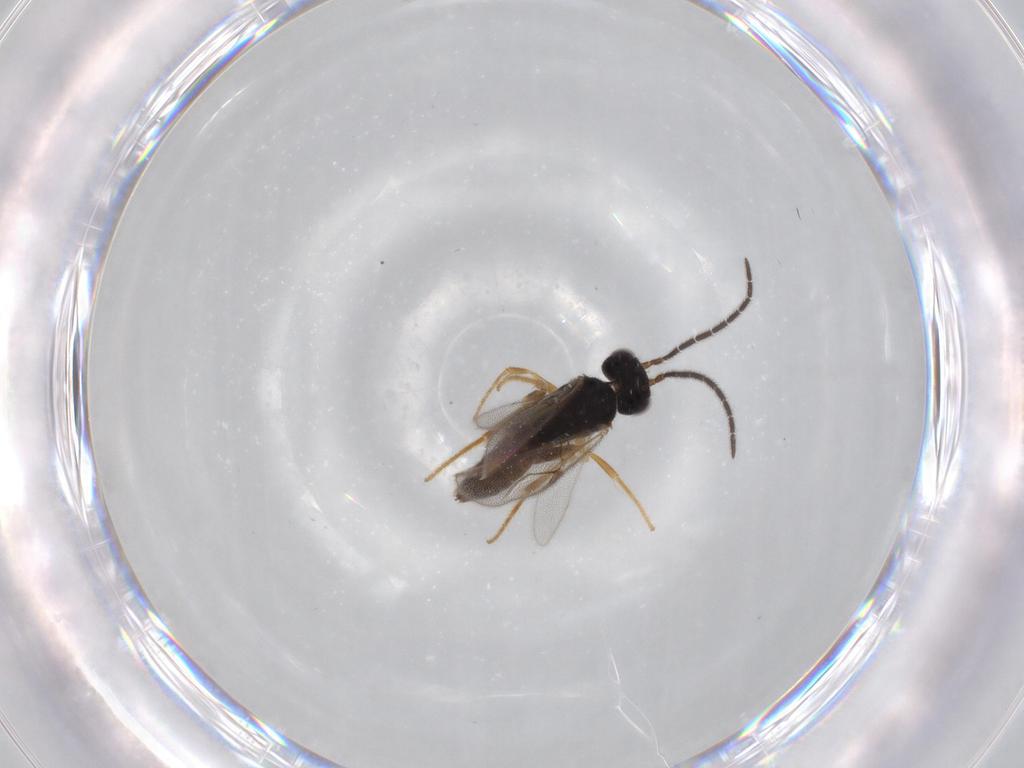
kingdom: Animalia
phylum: Arthropoda
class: Insecta
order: Hymenoptera
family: Dryinidae
